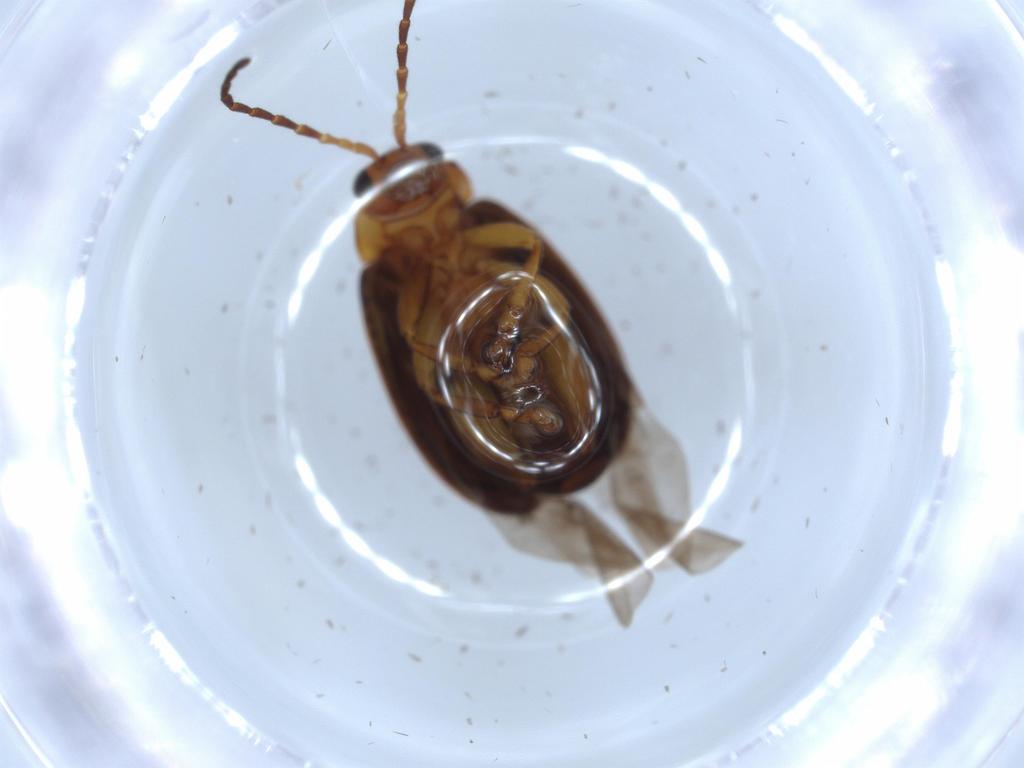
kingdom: Animalia
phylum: Arthropoda
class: Insecta
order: Coleoptera
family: Chrysomelidae
